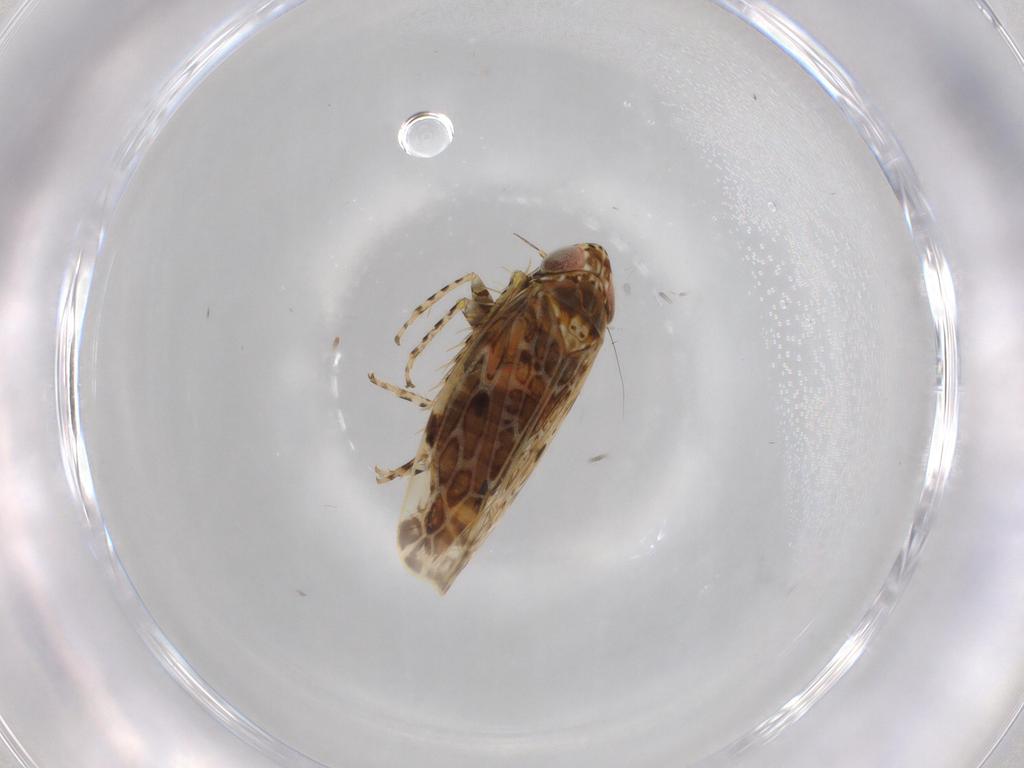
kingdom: Animalia
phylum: Arthropoda
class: Insecta
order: Hemiptera
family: Cicadellidae
